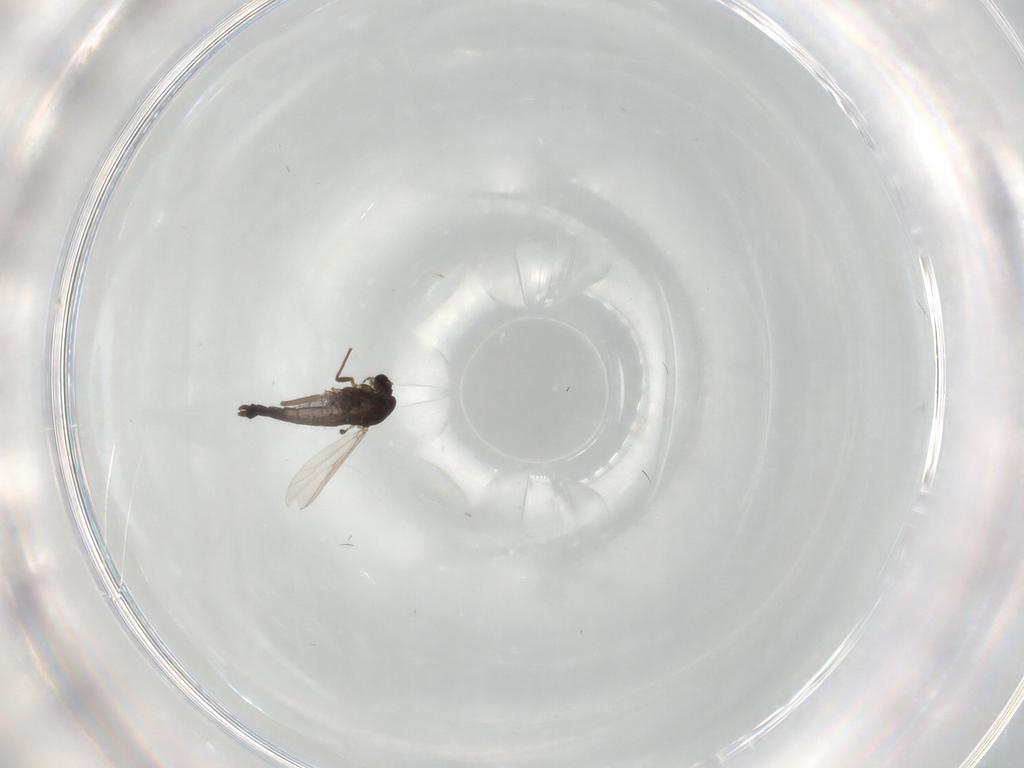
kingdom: Animalia
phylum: Arthropoda
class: Insecta
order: Diptera
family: Chironomidae
